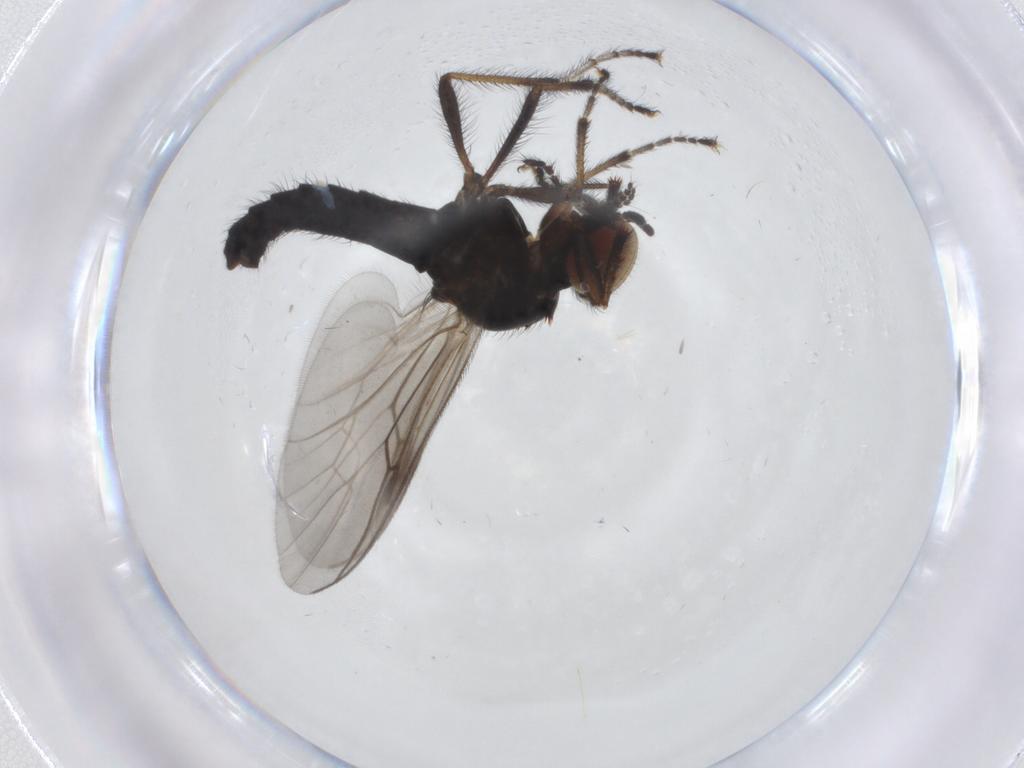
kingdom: Animalia
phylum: Arthropoda
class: Insecta
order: Diptera
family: Bibionidae
